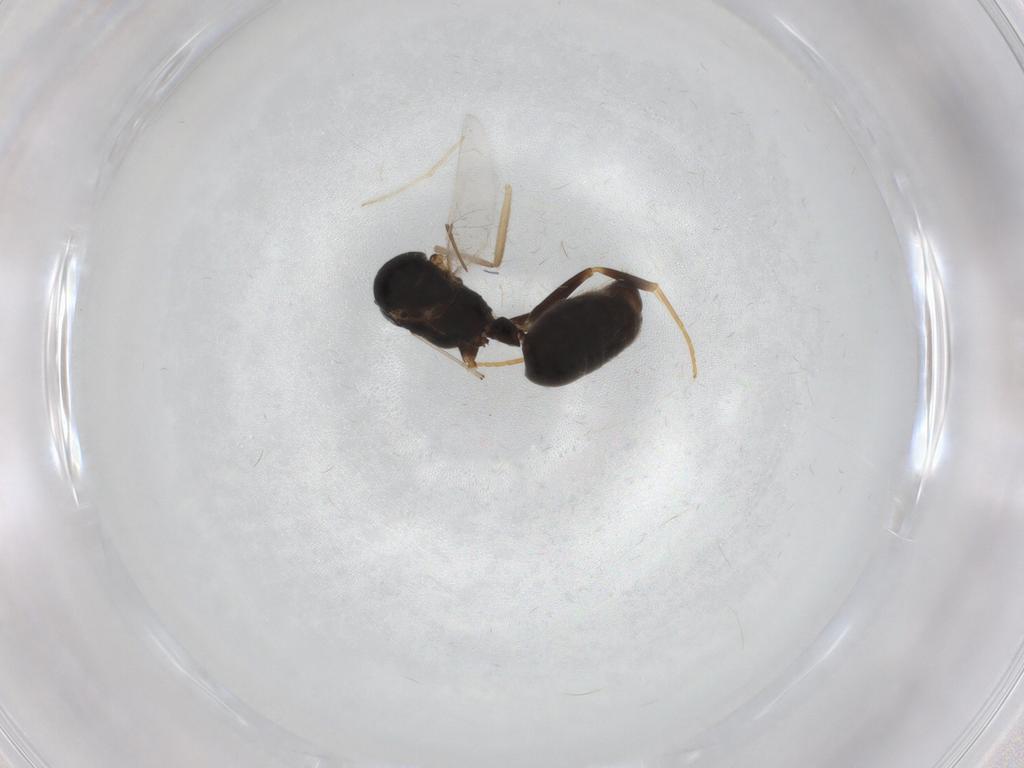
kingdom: Animalia
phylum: Arthropoda
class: Insecta
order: Hymenoptera
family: Formicidae
